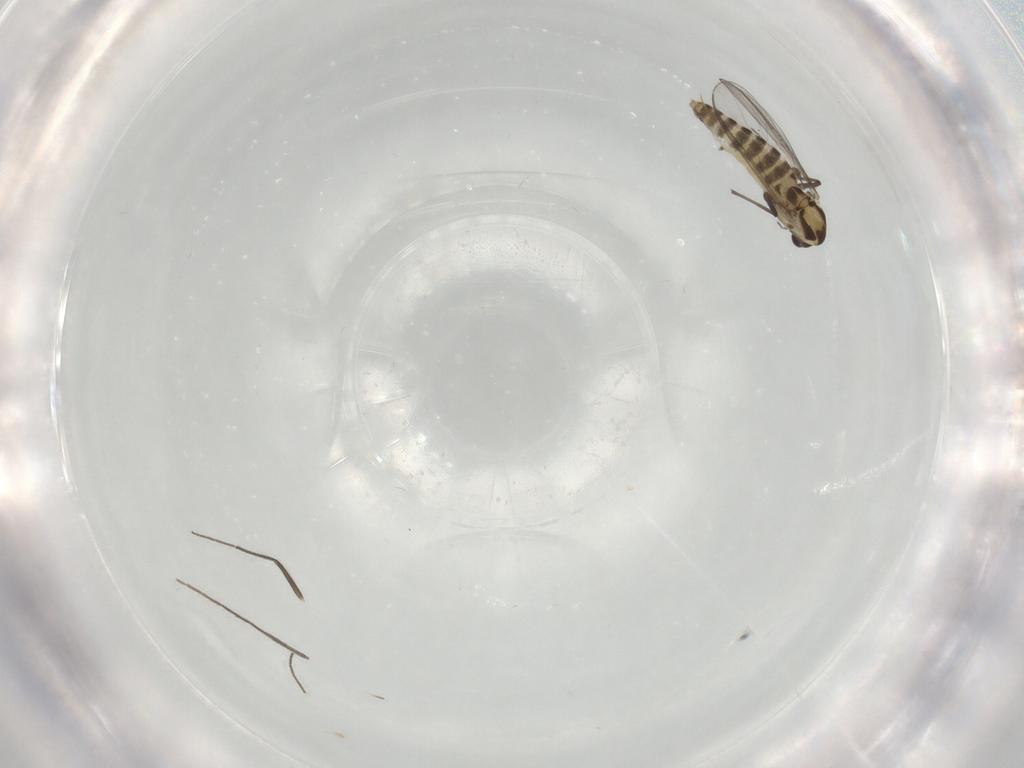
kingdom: Animalia
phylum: Arthropoda
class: Insecta
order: Diptera
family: Chironomidae
